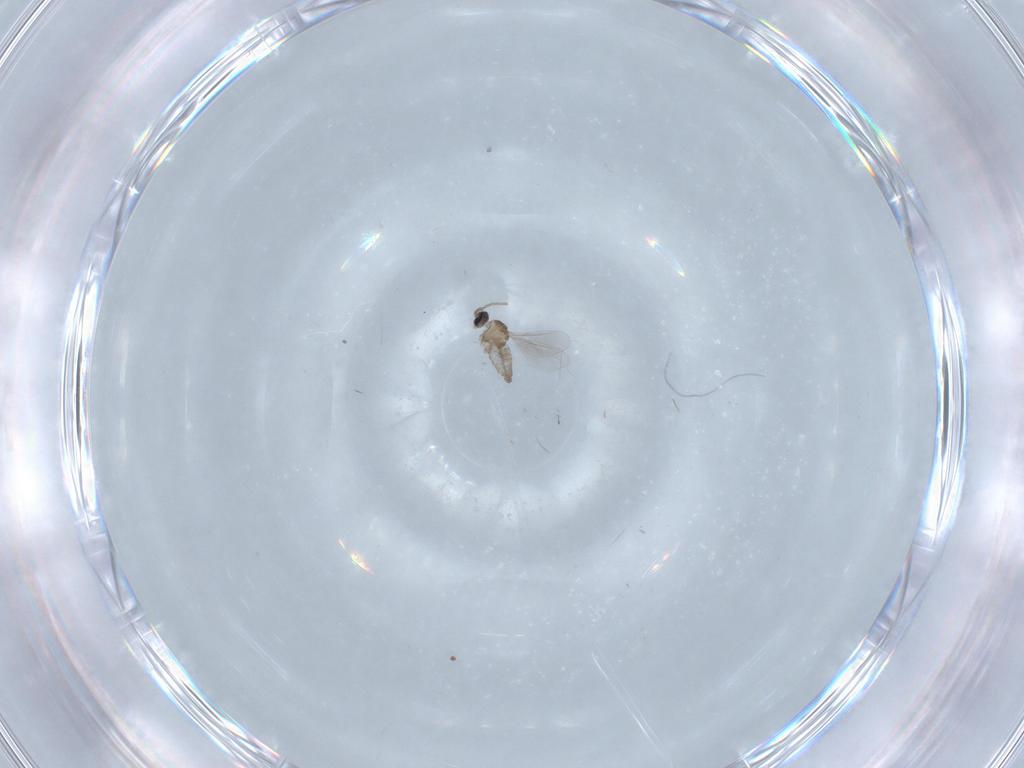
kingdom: Animalia
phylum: Arthropoda
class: Insecta
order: Diptera
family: Cecidomyiidae
